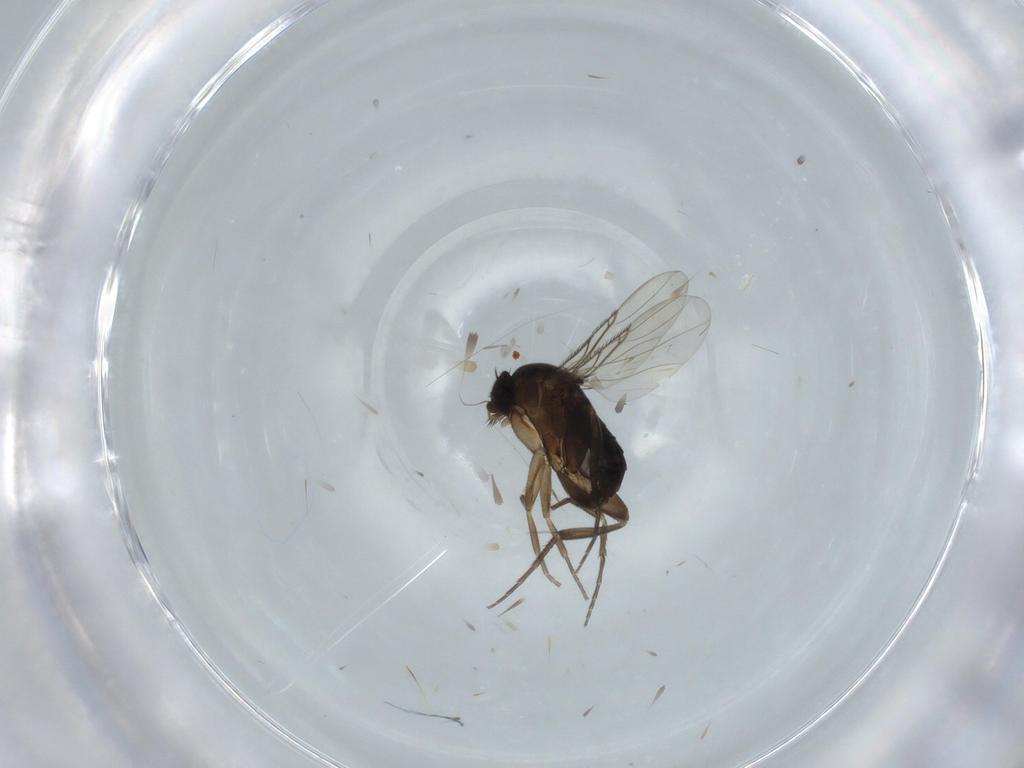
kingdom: Animalia
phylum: Arthropoda
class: Insecta
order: Diptera
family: Phoridae
